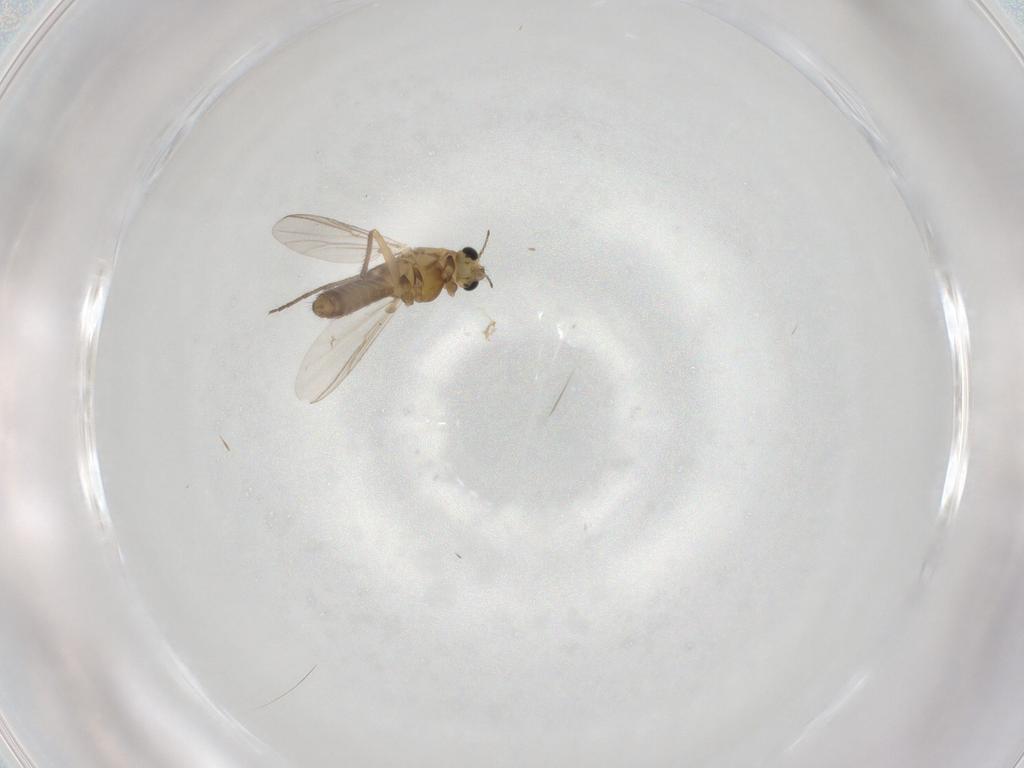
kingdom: Animalia
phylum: Arthropoda
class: Insecta
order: Diptera
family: Chironomidae
